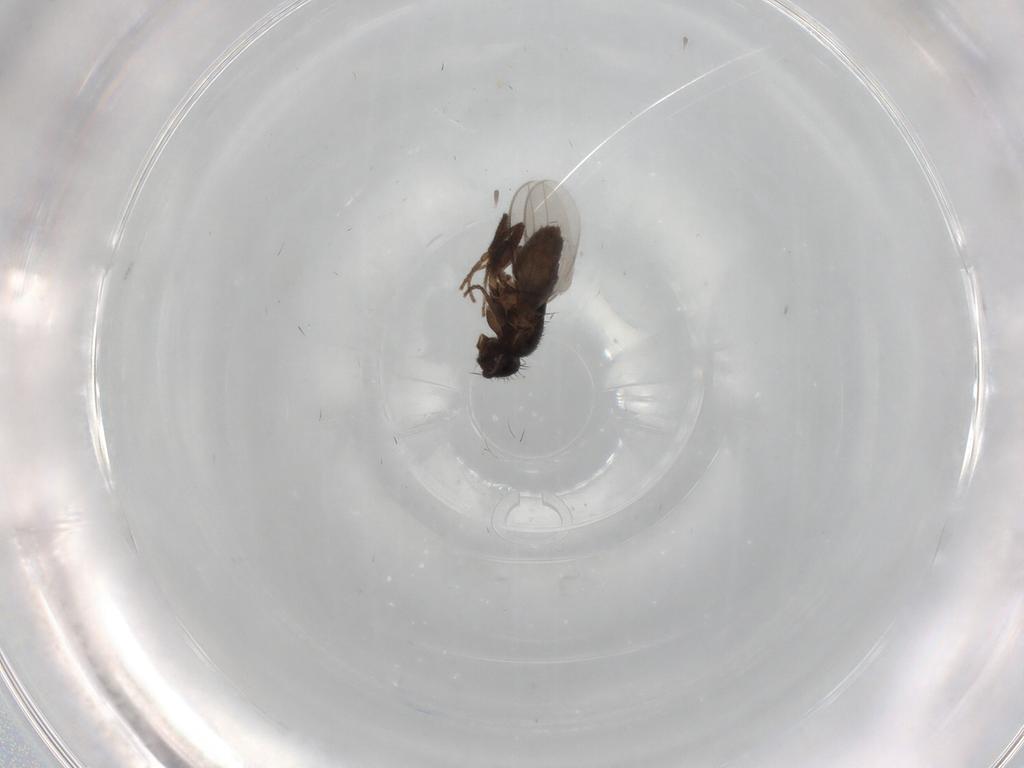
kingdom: Animalia
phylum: Arthropoda
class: Insecta
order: Diptera
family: Sphaeroceridae
